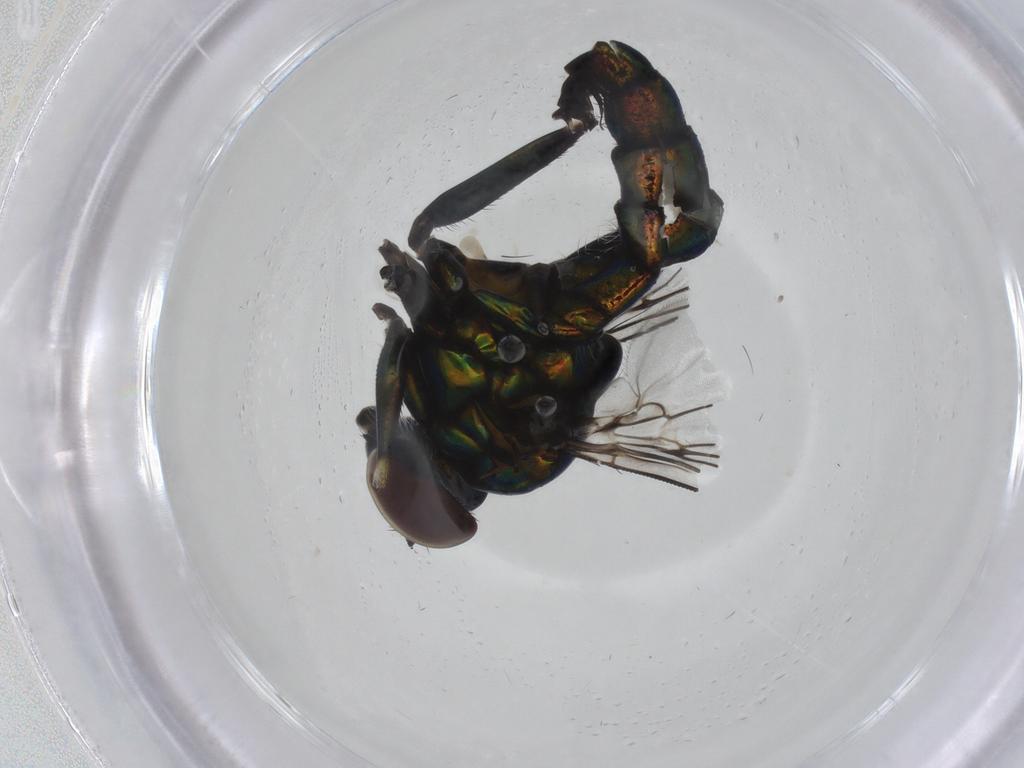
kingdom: Animalia
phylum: Arthropoda
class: Insecta
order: Diptera
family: Dolichopodidae
